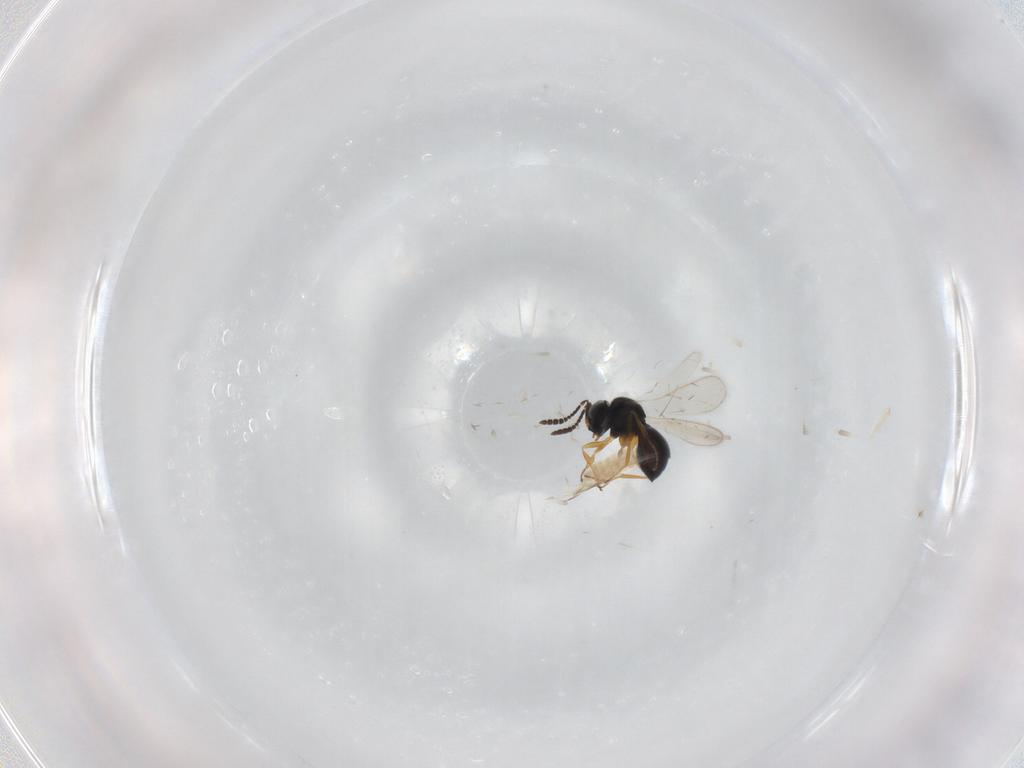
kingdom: Animalia
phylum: Arthropoda
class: Insecta
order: Hymenoptera
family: Scelionidae
